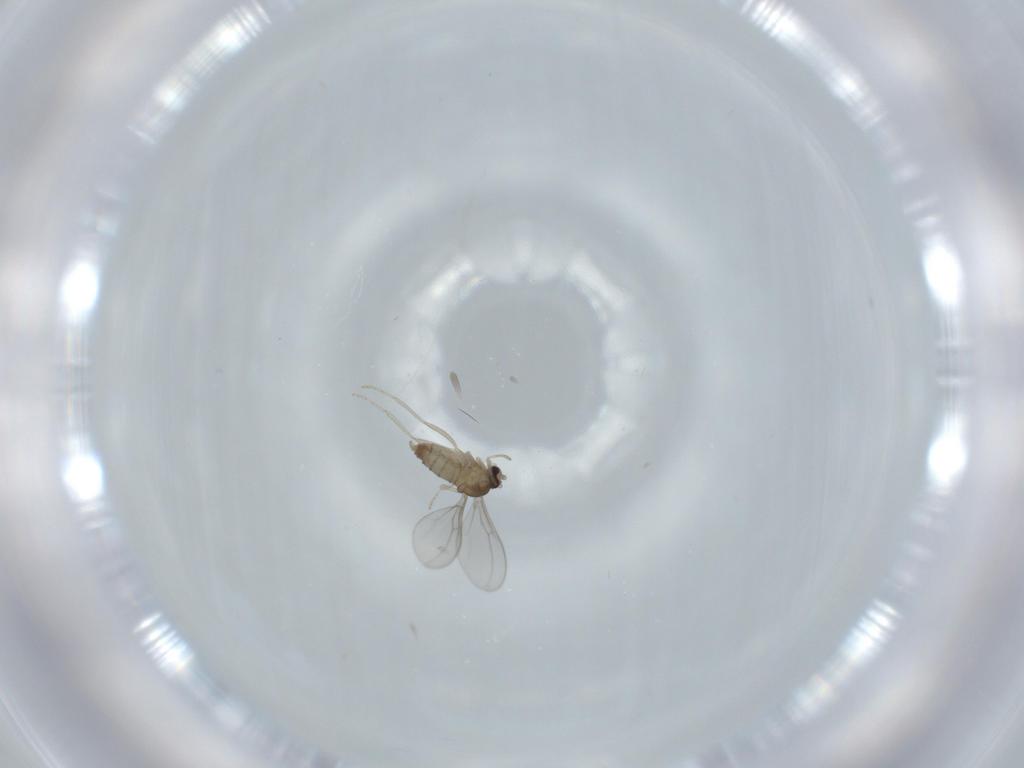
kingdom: Animalia
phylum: Arthropoda
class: Insecta
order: Diptera
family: Cecidomyiidae
